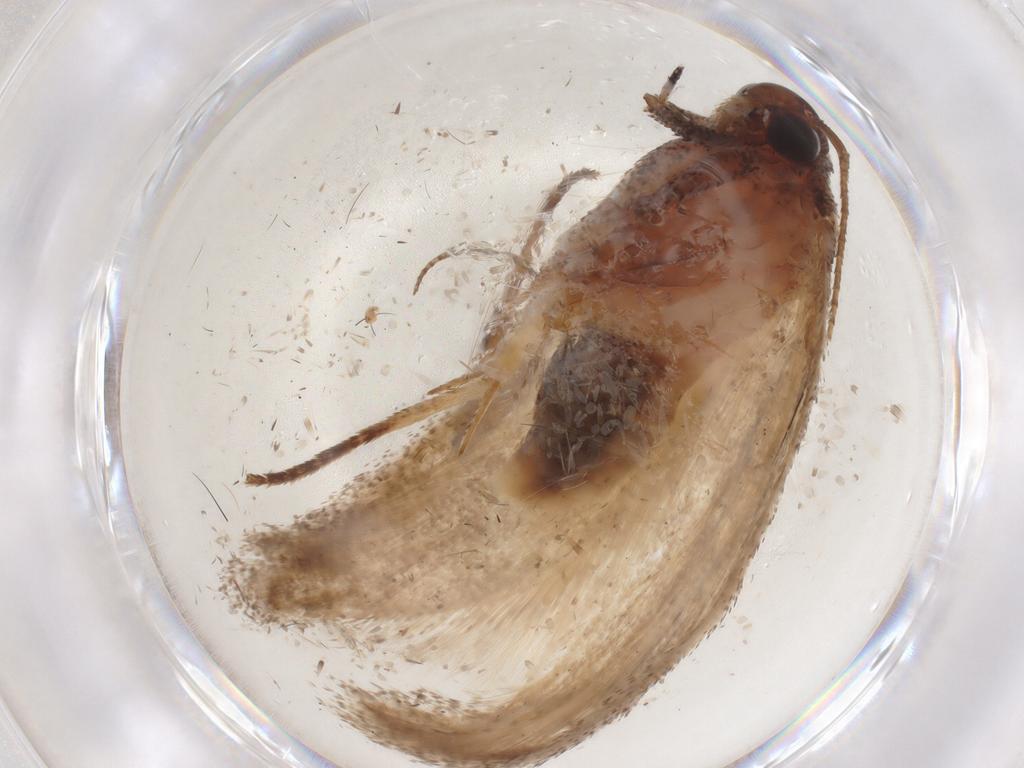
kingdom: Animalia
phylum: Arthropoda
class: Insecta
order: Lepidoptera
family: Cosmopterigidae
